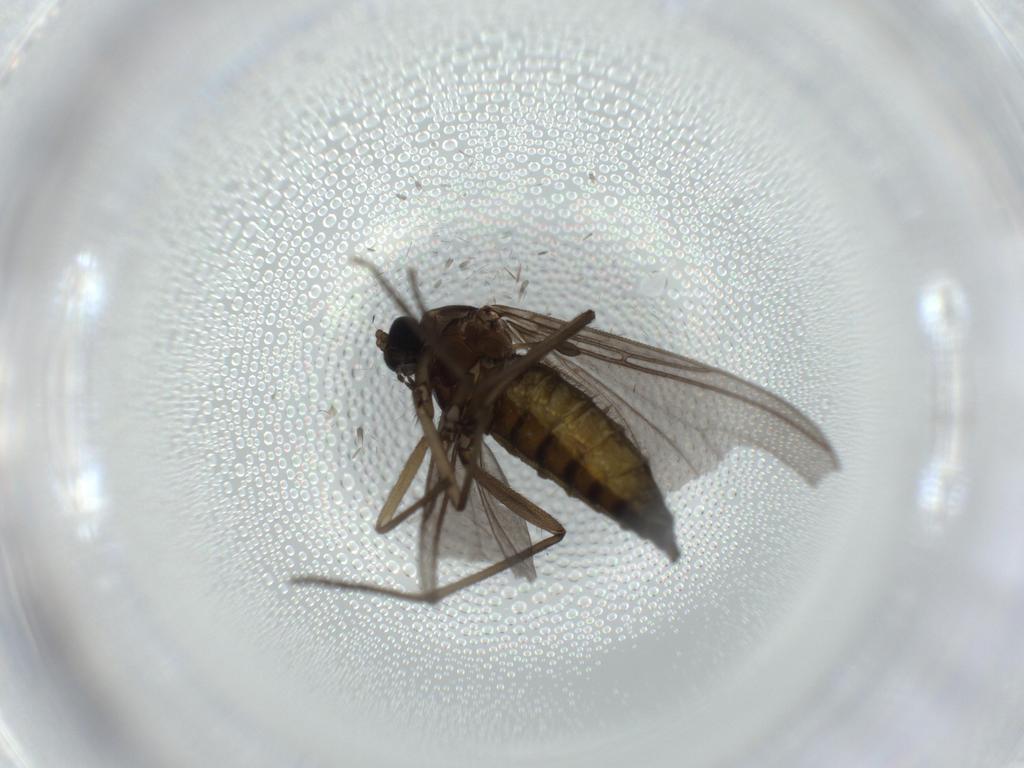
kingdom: Animalia
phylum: Arthropoda
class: Insecta
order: Diptera
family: Sciaridae
